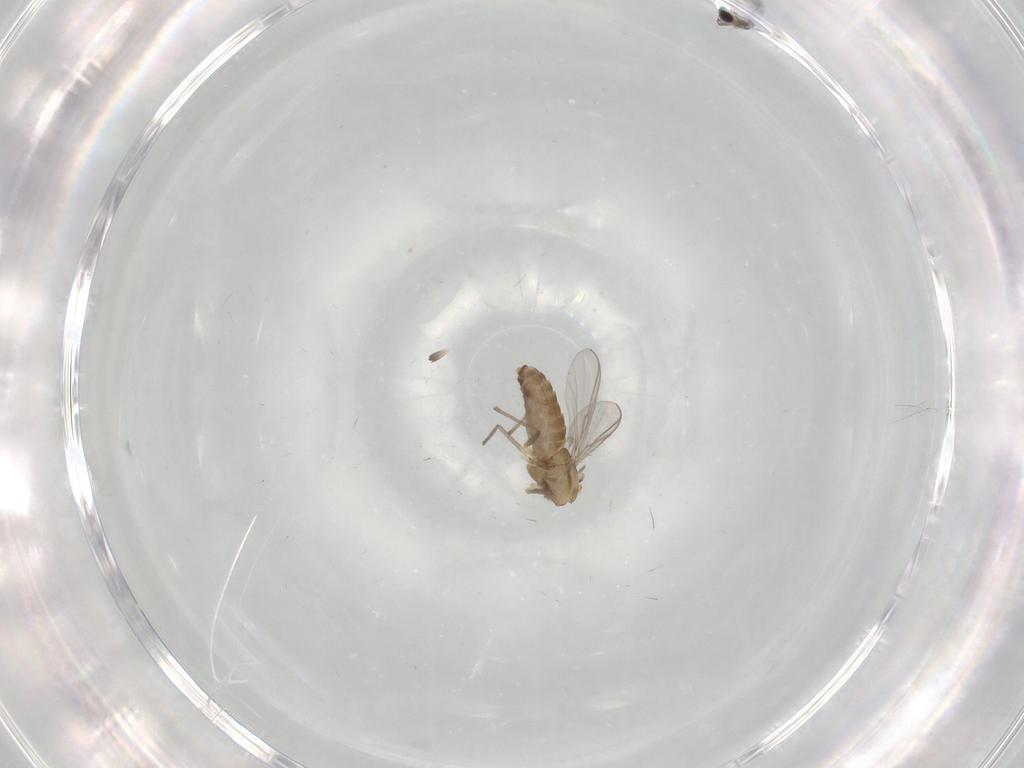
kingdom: Animalia
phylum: Arthropoda
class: Insecta
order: Diptera
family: Chironomidae
